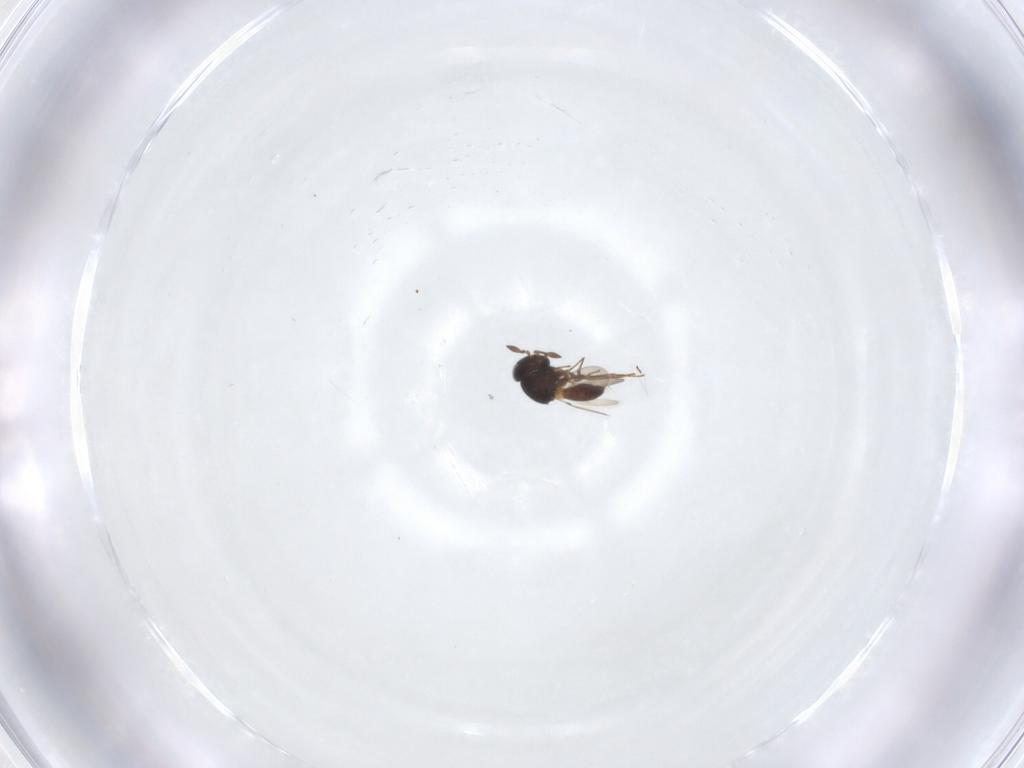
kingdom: Animalia
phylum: Arthropoda
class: Insecta
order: Hymenoptera
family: Scelionidae
